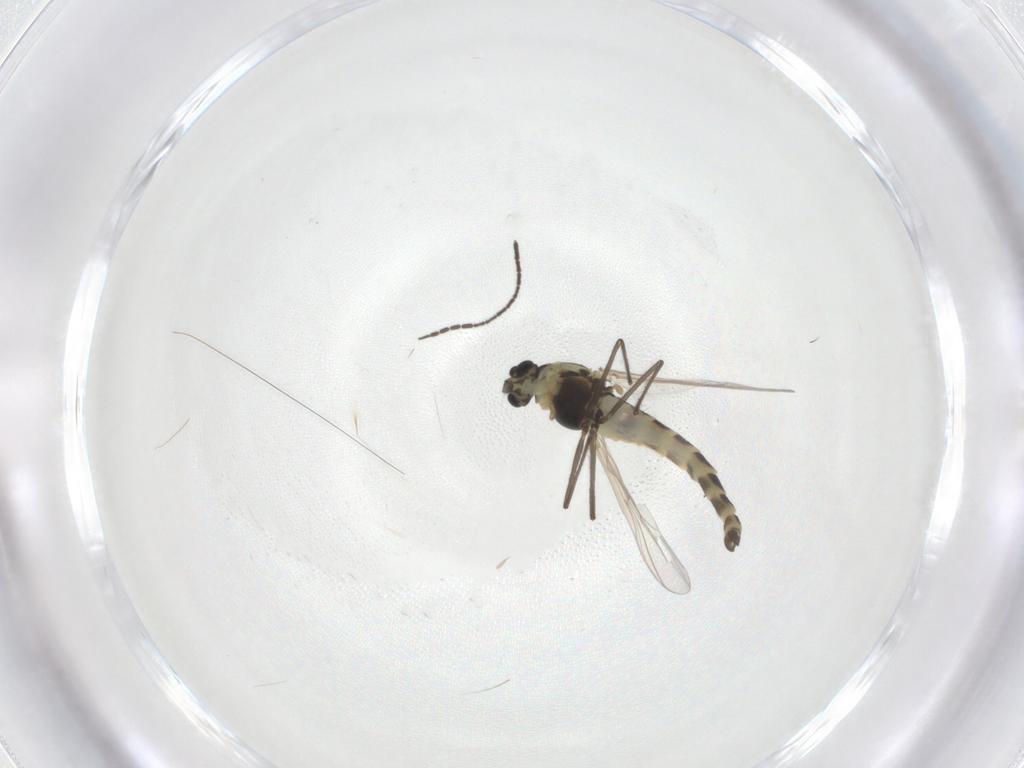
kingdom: Animalia
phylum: Arthropoda
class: Insecta
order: Diptera
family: Chironomidae
